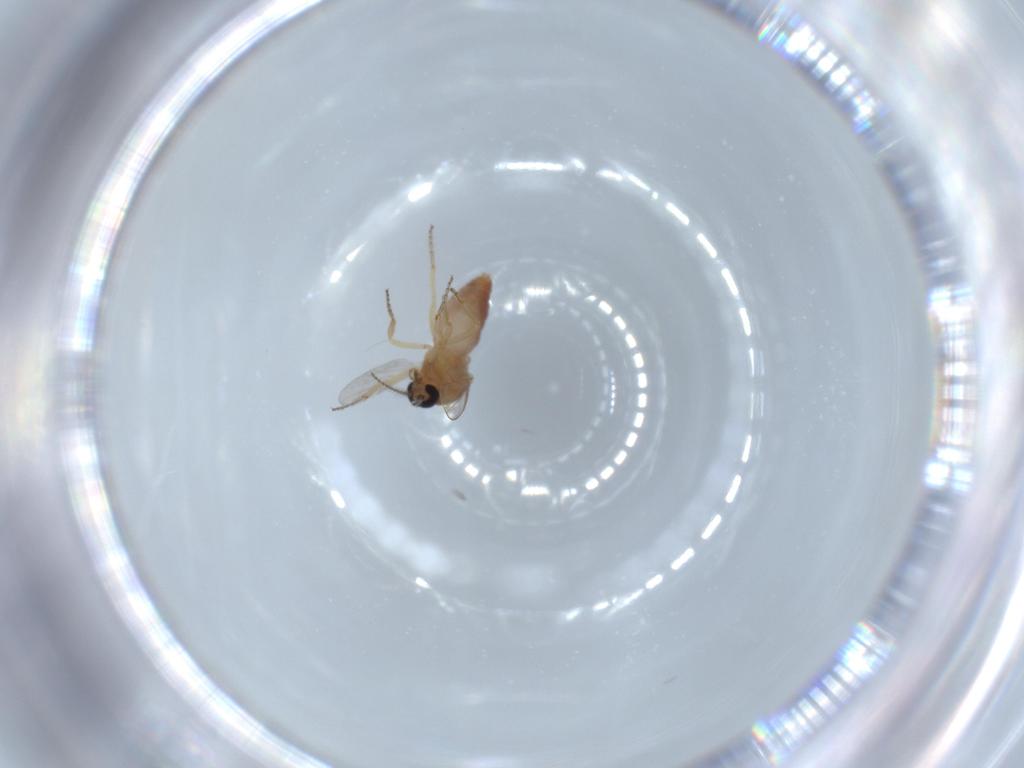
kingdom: Animalia
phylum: Arthropoda
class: Insecta
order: Diptera
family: Ceratopogonidae
